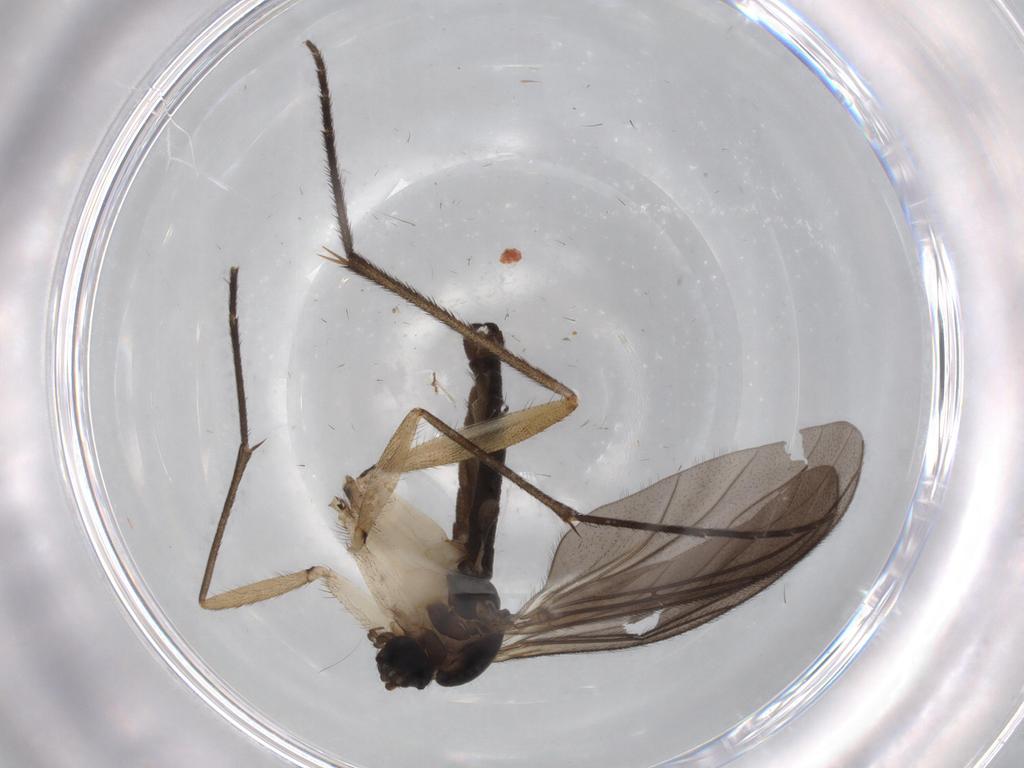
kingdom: Animalia
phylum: Arthropoda
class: Insecta
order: Diptera
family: Sciaridae
